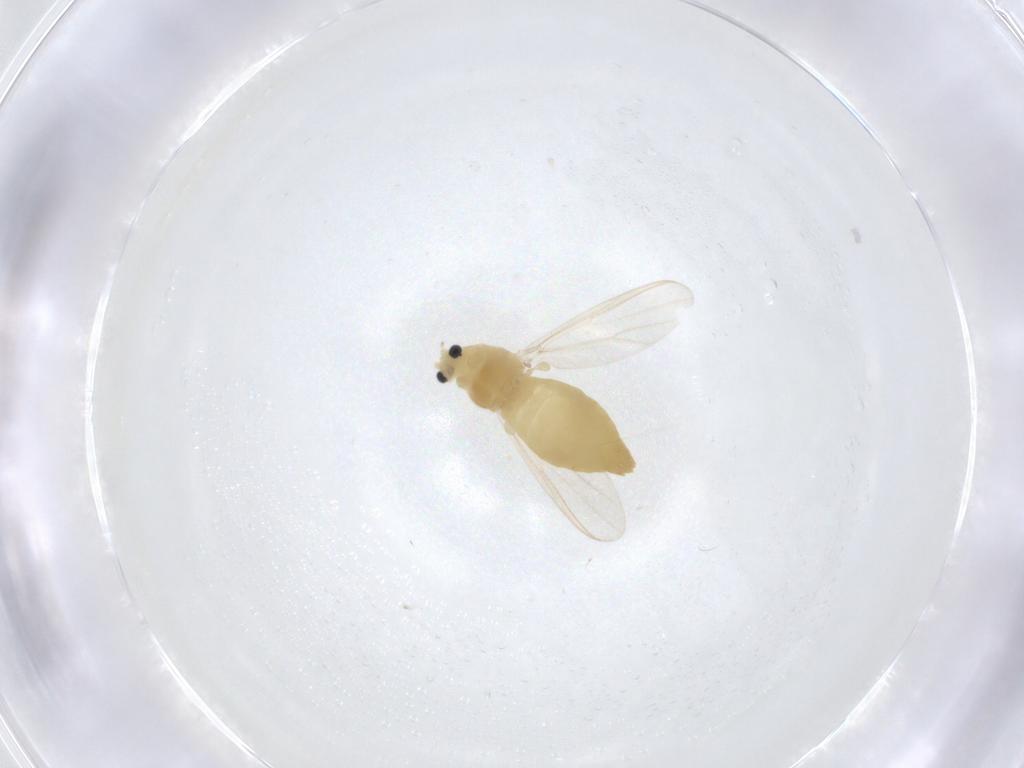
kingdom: Animalia
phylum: Arthropoda
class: Insecta
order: Diptera
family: Chironomidae
